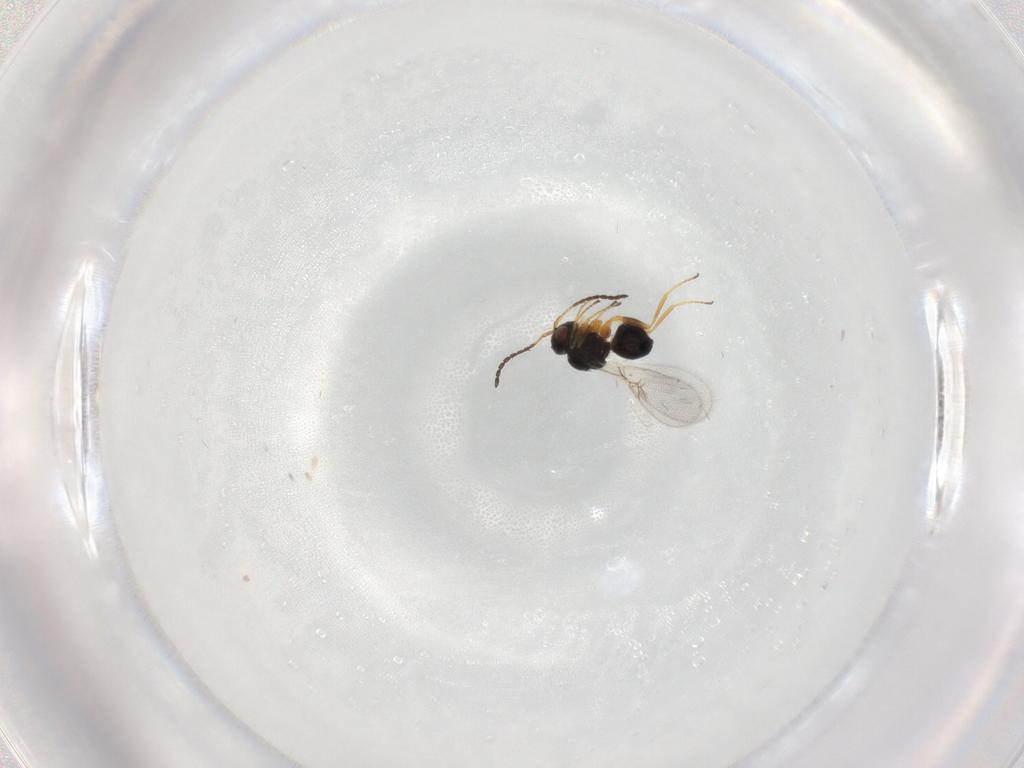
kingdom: Animalia
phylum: Arthropoda
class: Insecta
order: Hymenoptera
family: Figitidae
